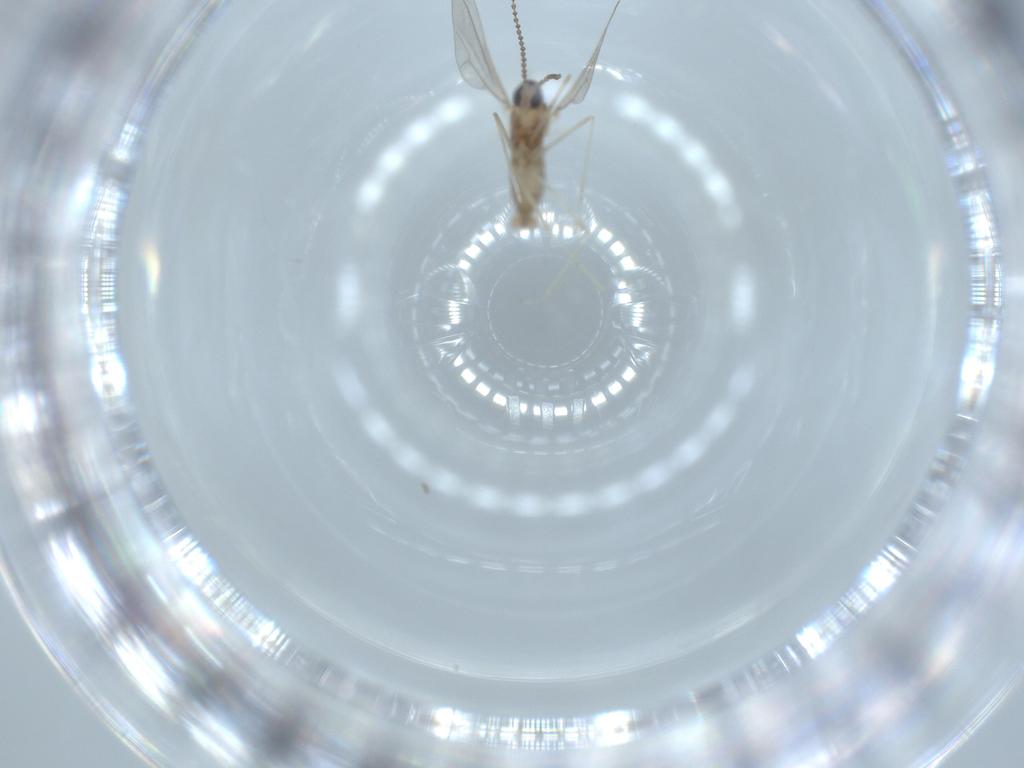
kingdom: Animalia
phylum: Arthropoda
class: Insecta
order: Diptera
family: Cecidomyiidae
